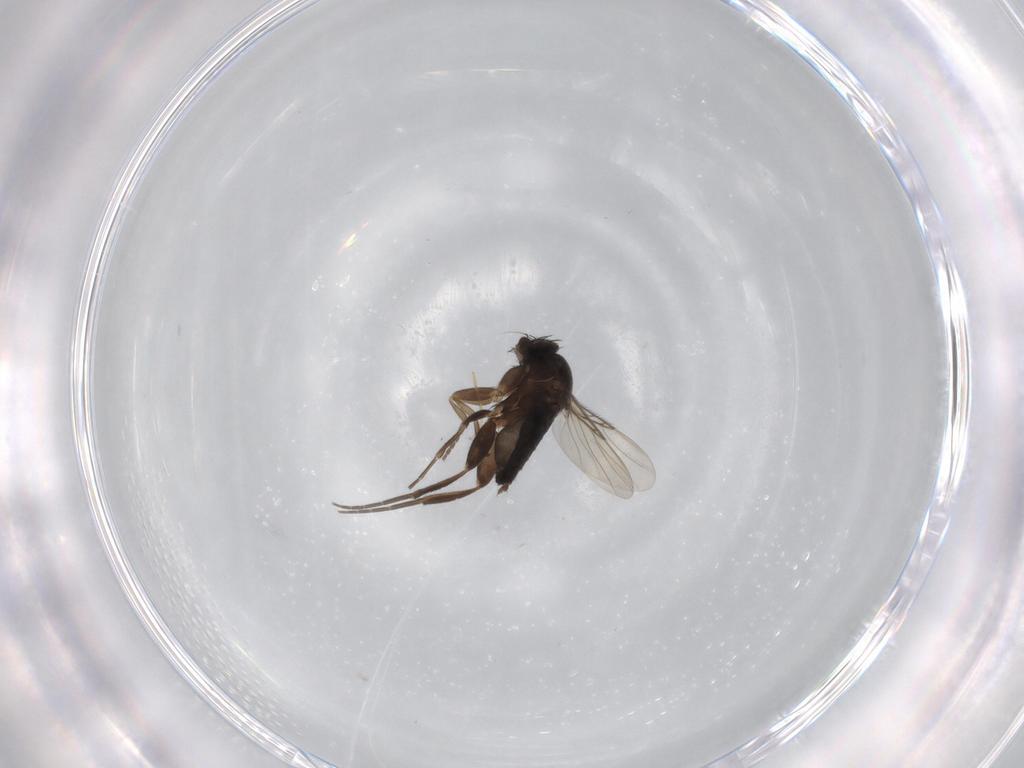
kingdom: Animalia
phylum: Arthropoda
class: Insecta
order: Diptera
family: Phoridae
